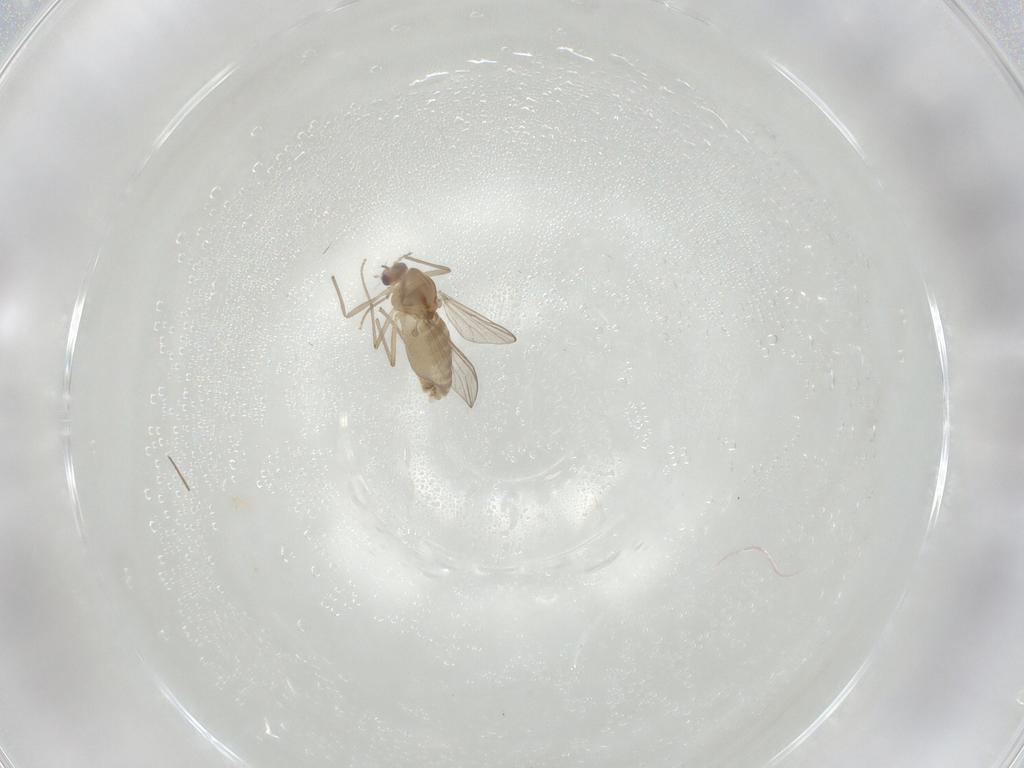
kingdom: Animalia
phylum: Arthropoda
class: Insecta
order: Diptera
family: Chironomidae
